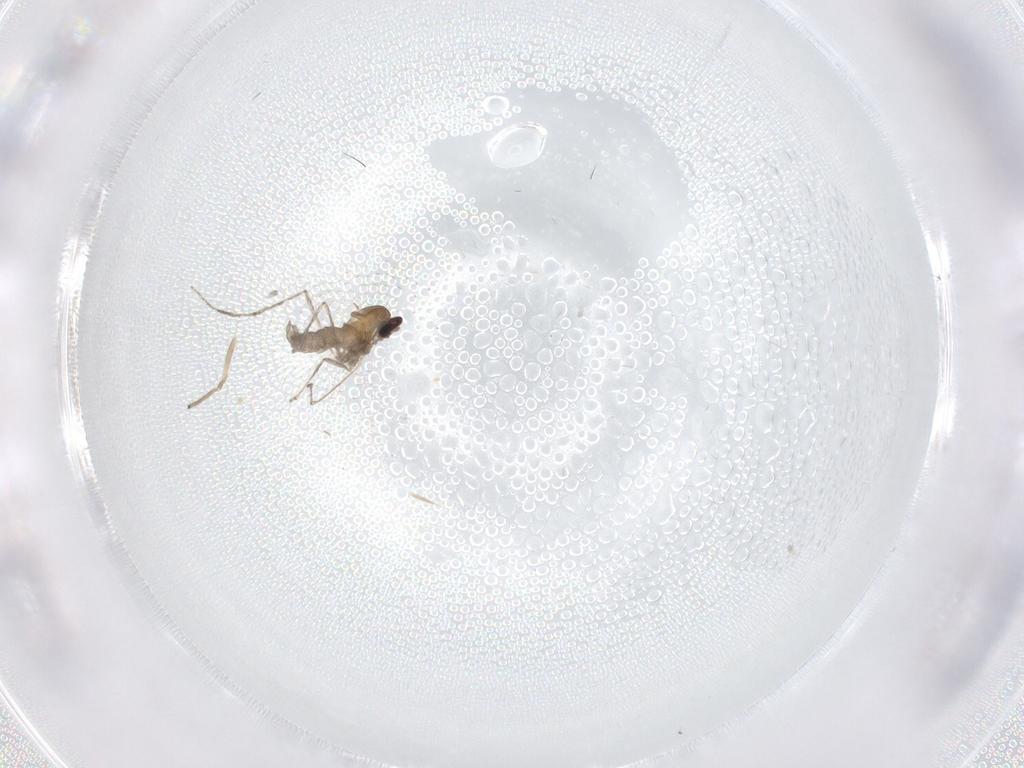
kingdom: Animalia
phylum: Arthropoda
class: Insecta
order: Diptera
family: Cecidomyiidae
